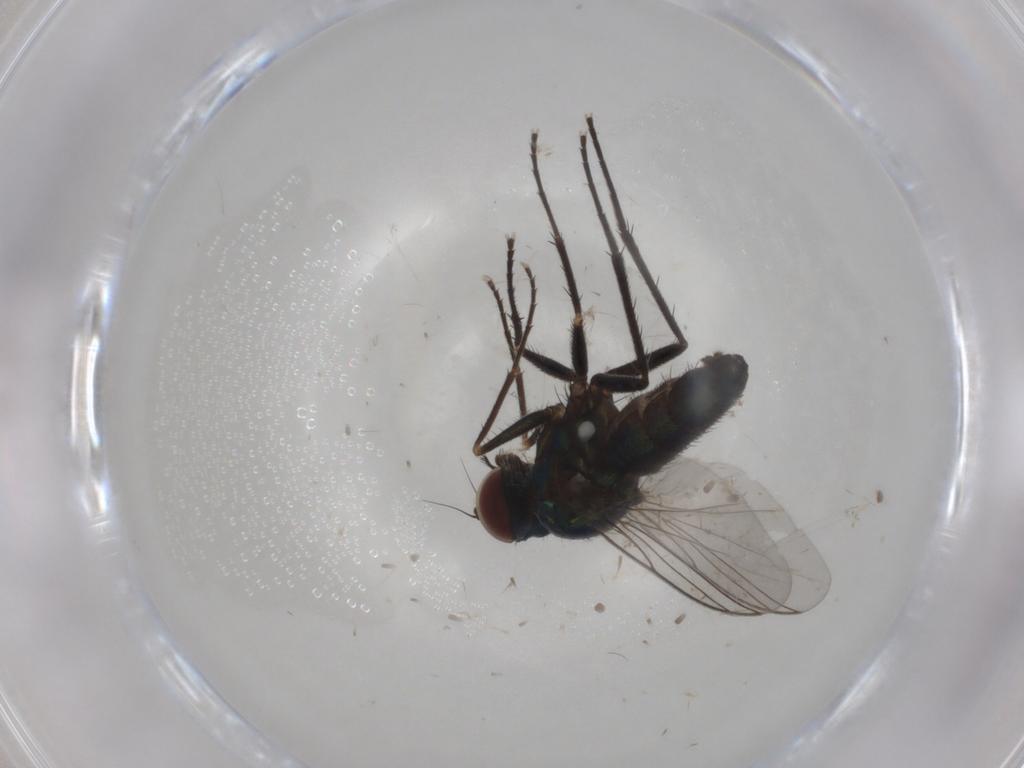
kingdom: Animalia
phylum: Arthropoda
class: Insecta
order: Diptera
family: Dolichopodidae
